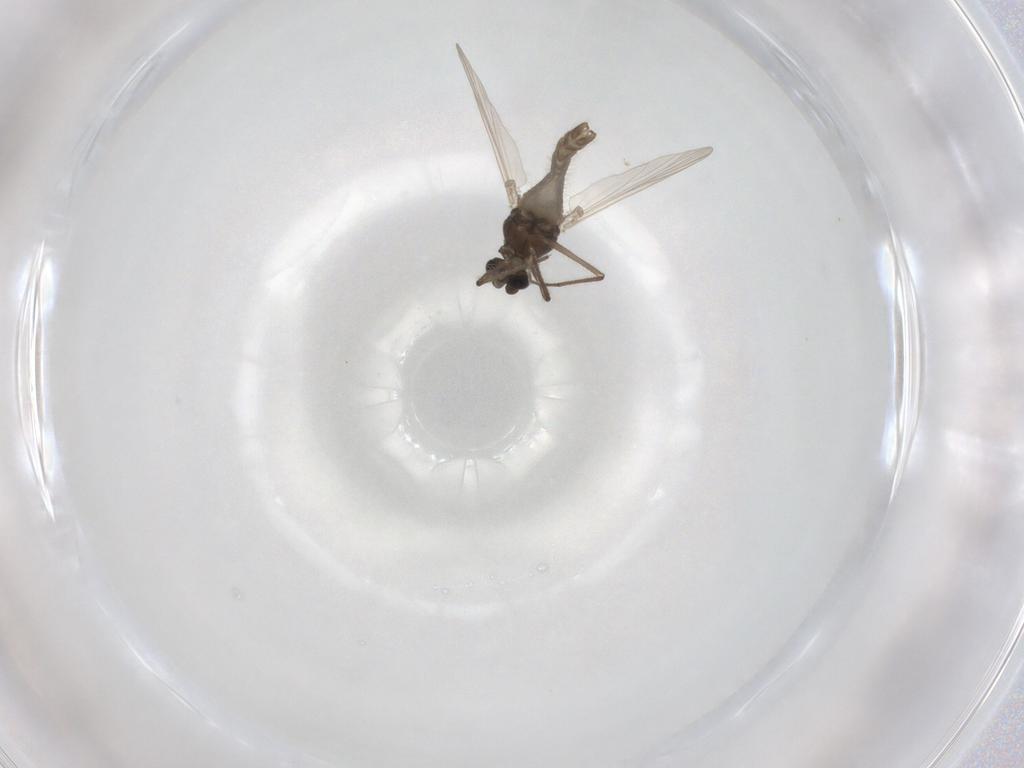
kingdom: Animalia
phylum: Arthropoda
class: Insecta
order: Diptera
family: Chironomidae
